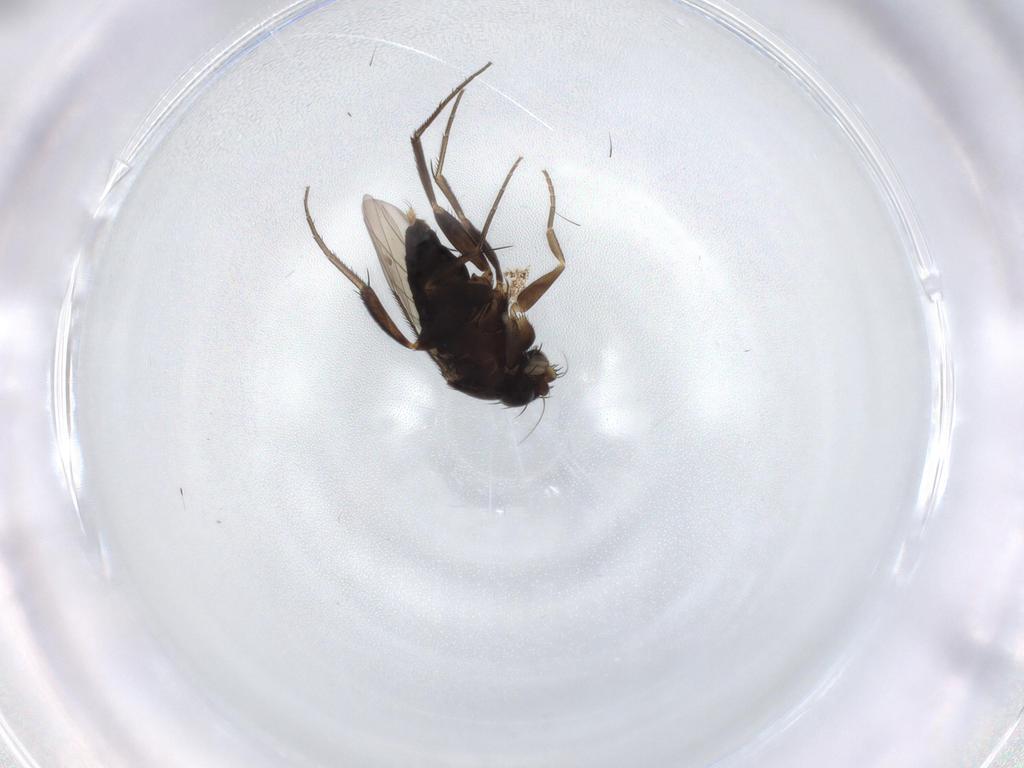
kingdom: Animalia
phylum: Arthropoda
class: Insecta
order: Diptera
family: Phoridae
